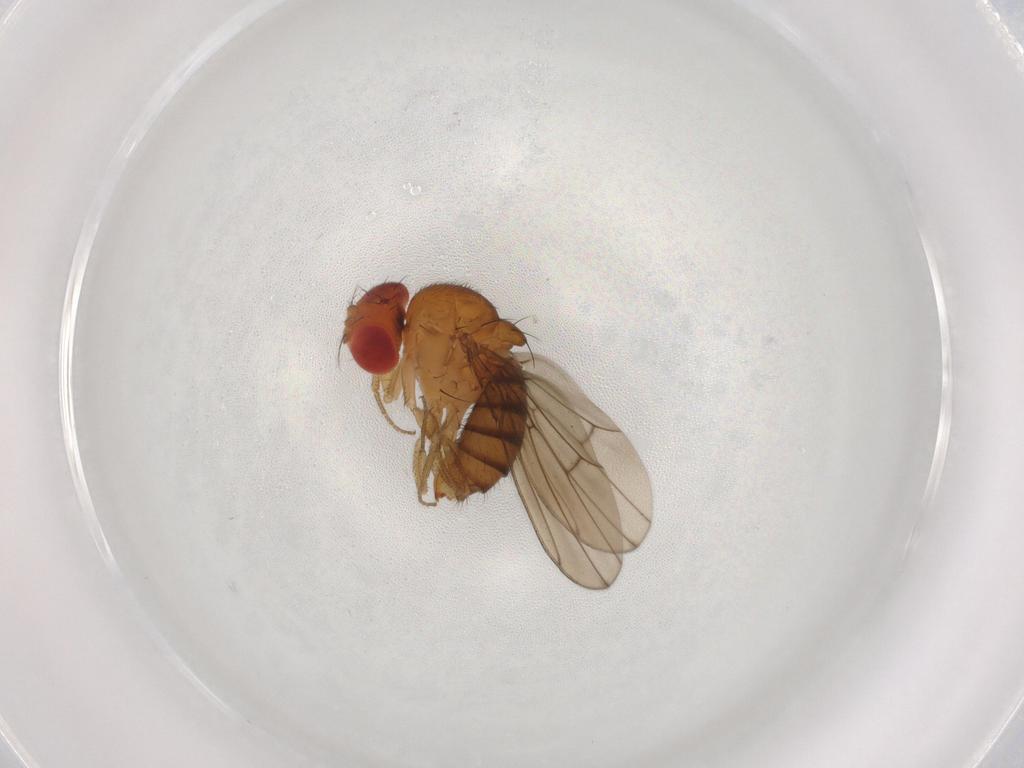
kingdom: Animalia
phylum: Arthropoda
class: Insecta
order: Diptera
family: Drosophilidae
